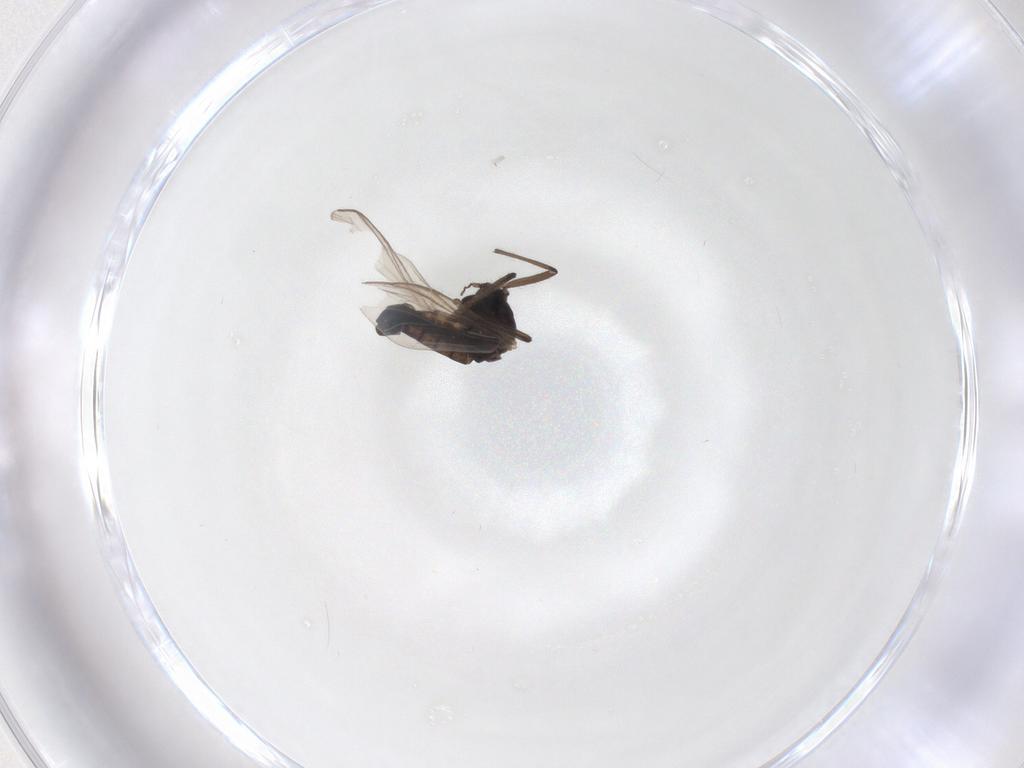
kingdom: Animalia
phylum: Arthropoda
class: Insecta
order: Diptera
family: Chironomidae
